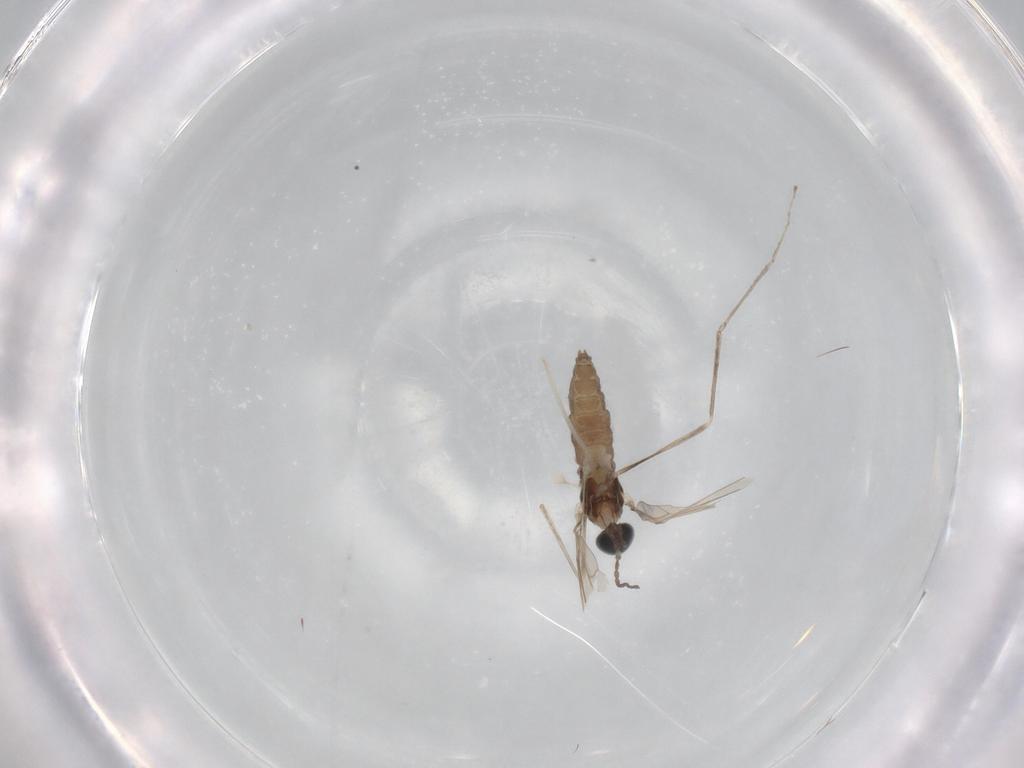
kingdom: Animalia
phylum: Arthropoda
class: Insecta
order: Diptera
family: Cecidomyiidae
